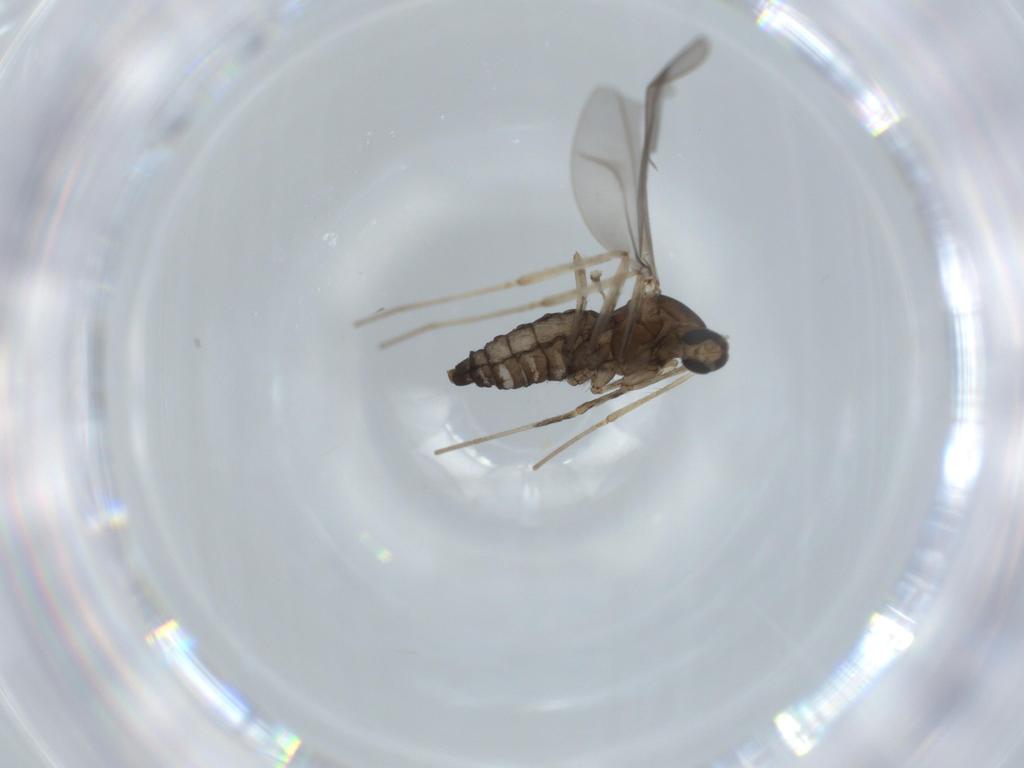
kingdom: Animalia
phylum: Arthropoda
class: Insecta
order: Diptera
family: Cecidomyiidae
